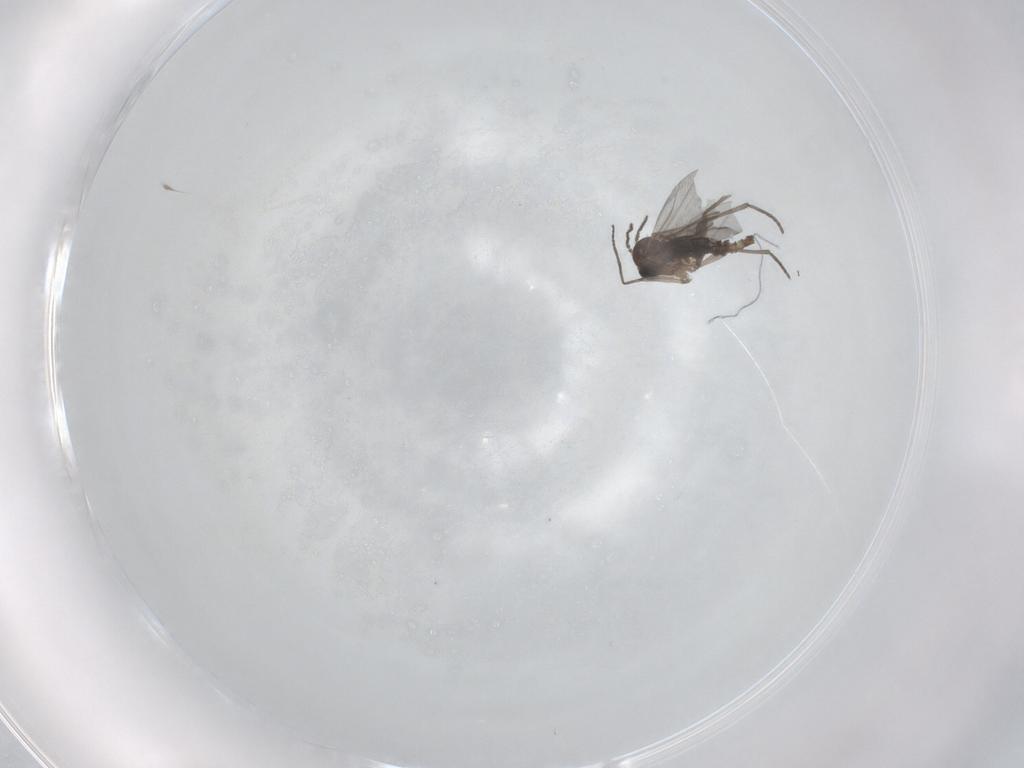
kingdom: Animalia
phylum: Arthropoda
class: Insecta
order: Diptera
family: Sciaridae
